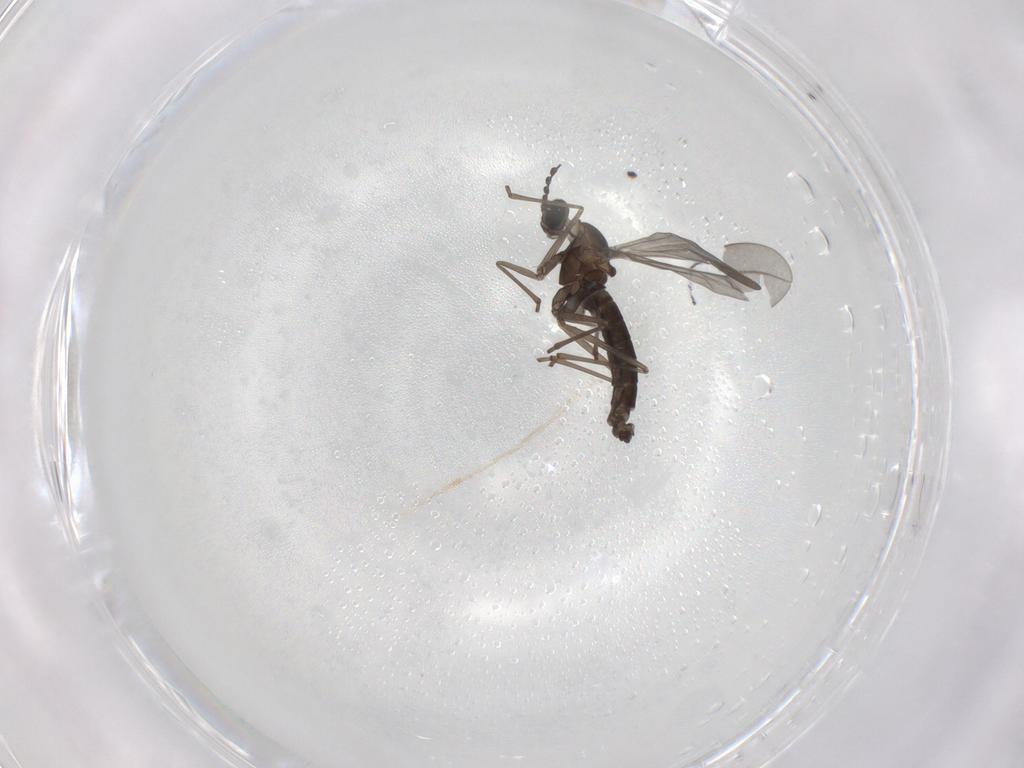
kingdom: Animalia
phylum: Arthropoda
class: Insecta
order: Diptera
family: Cecidomyiidae
